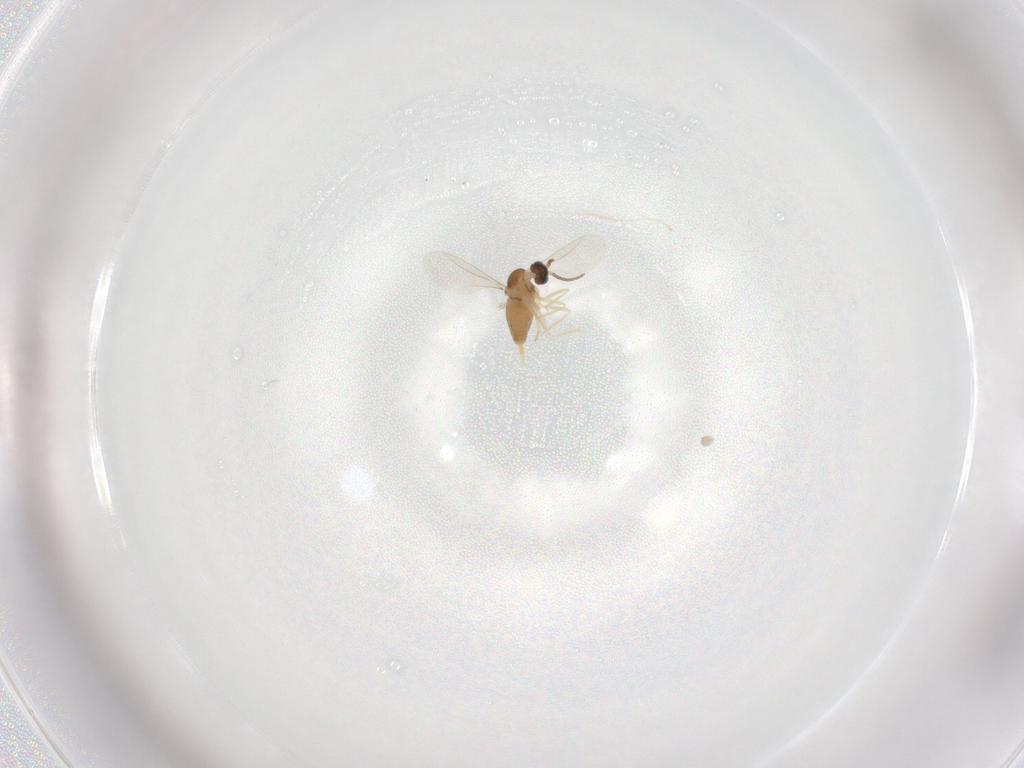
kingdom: Animalia
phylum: Arthropoda
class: Insecta
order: Diptera
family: Cecidomyiidae
